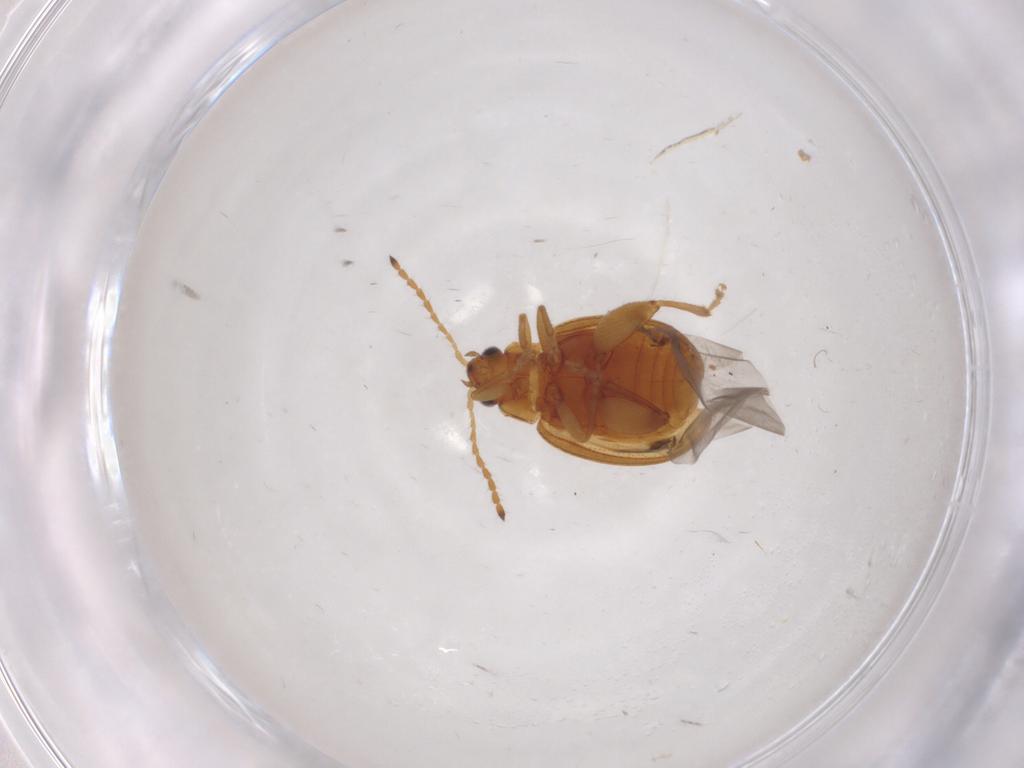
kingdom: Animalia
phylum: Arthropoda
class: Insecta
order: Coleoptera
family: Chrysomelidae
